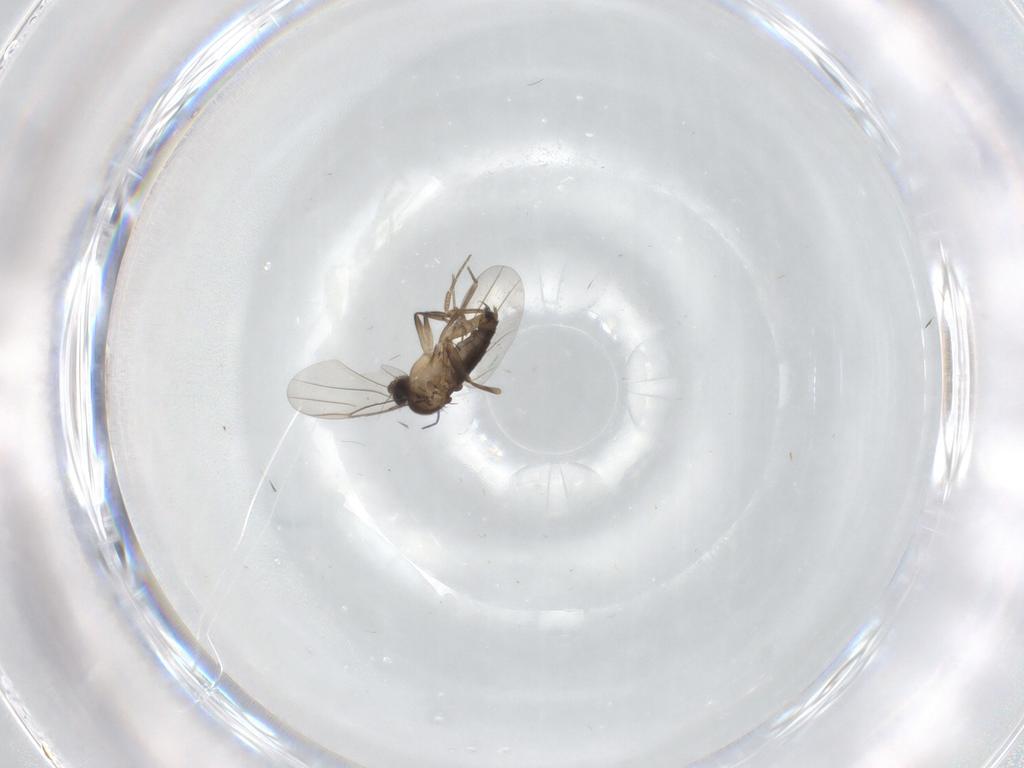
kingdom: Animalia
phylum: Arthropoda
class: Insecta
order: Diptera
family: Phoridae
